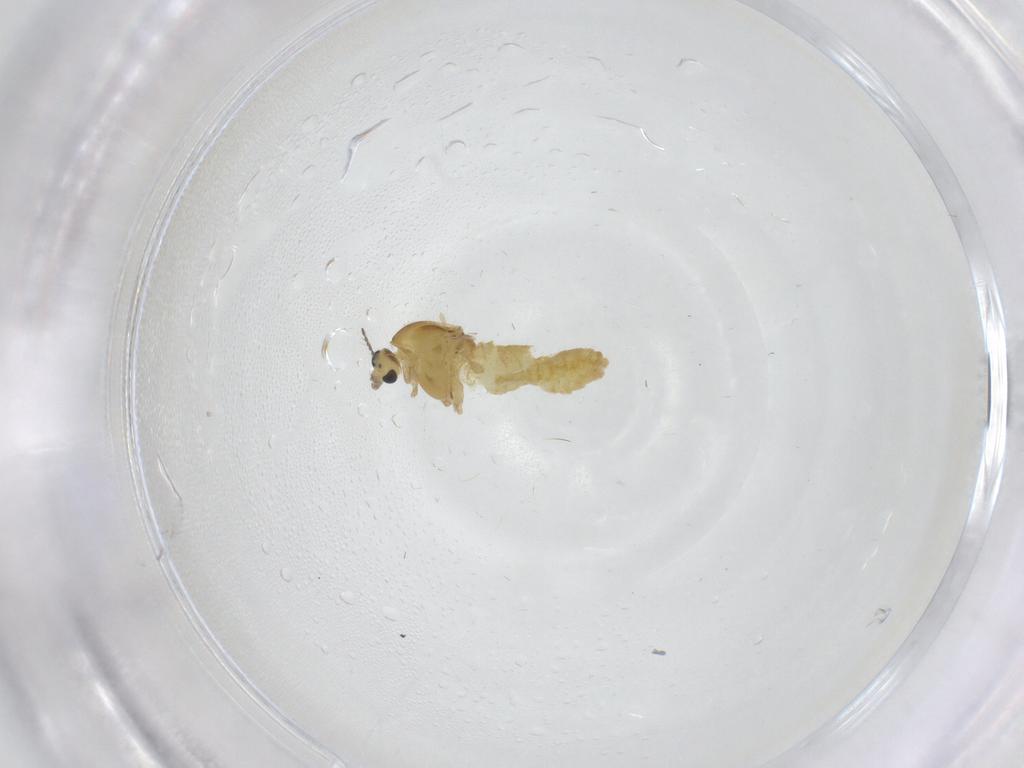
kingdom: Animalia
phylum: Arthropoda
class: Insecta
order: Diptera
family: Chironomidae
